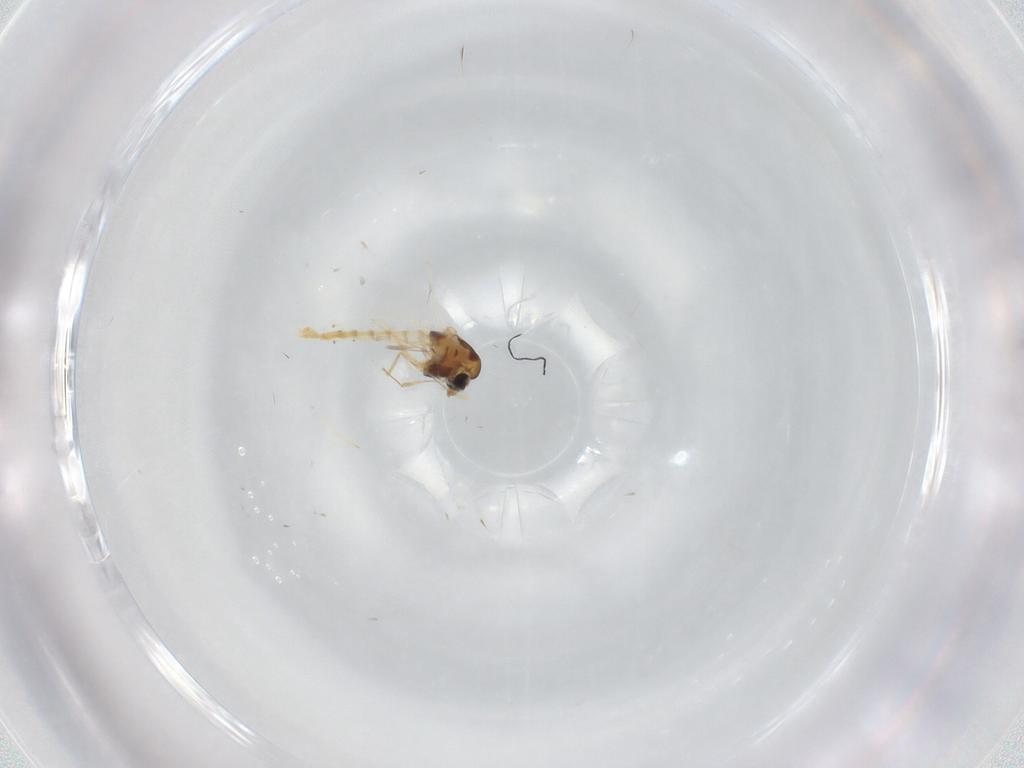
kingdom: Animalia
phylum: Arthropoda
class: Insecta
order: Diptera
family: Chironomidae
